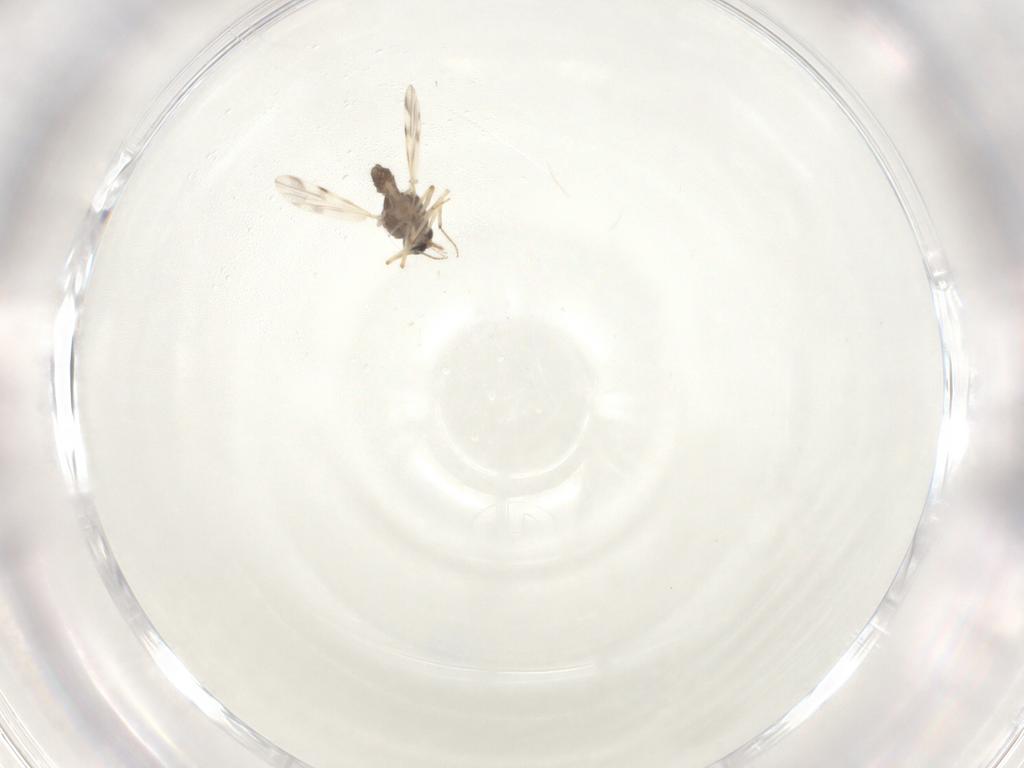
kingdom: Animalia
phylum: Arthropoda
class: Insecta
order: Diptera
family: Ceratopogonidae
